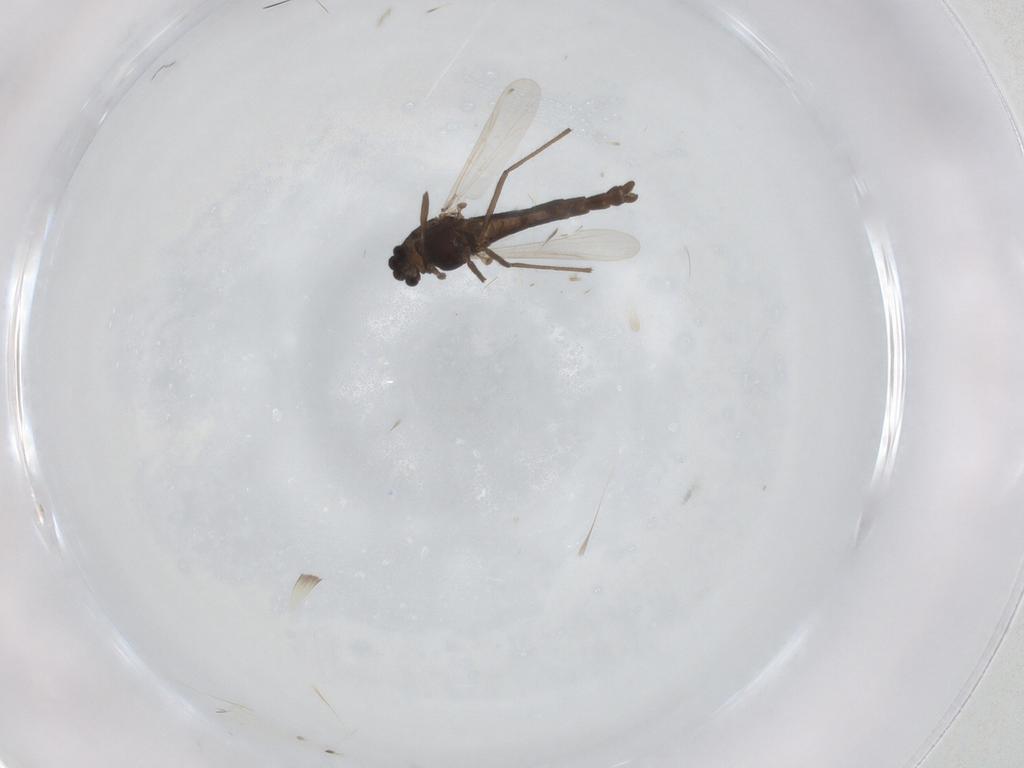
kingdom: Animalia
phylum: Arthropoda
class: Insecta
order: Diptera
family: Chironomidae
